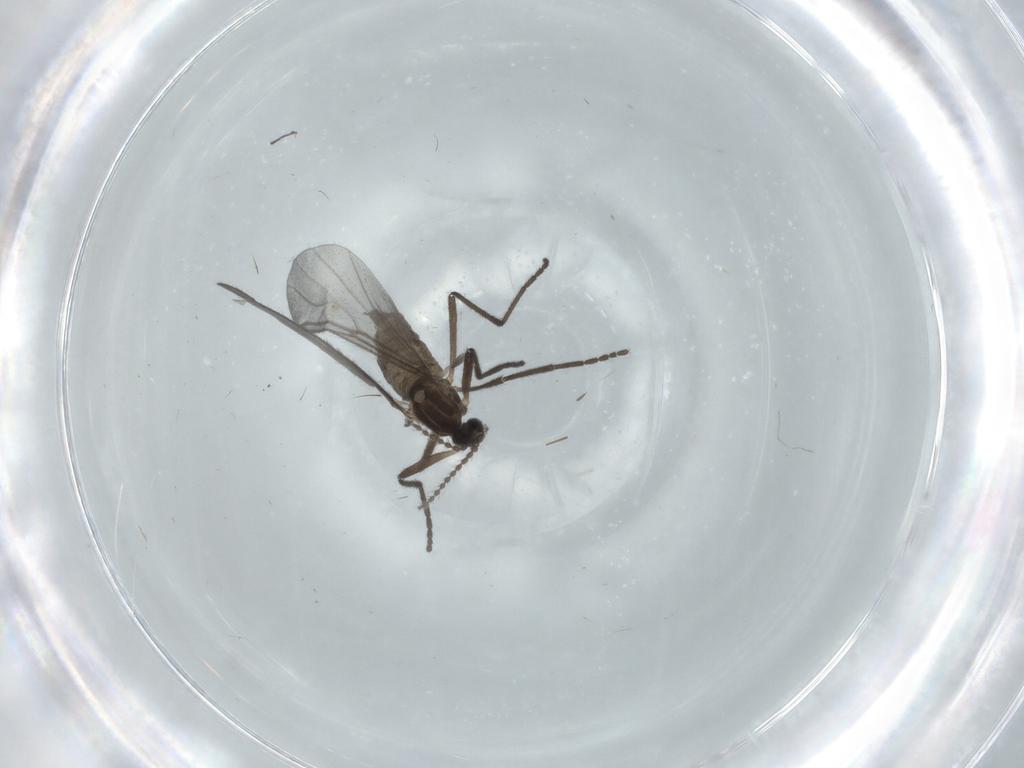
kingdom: Animalia
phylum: Arthropoda
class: Insecta
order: Diptera
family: Cecidomyiidae
